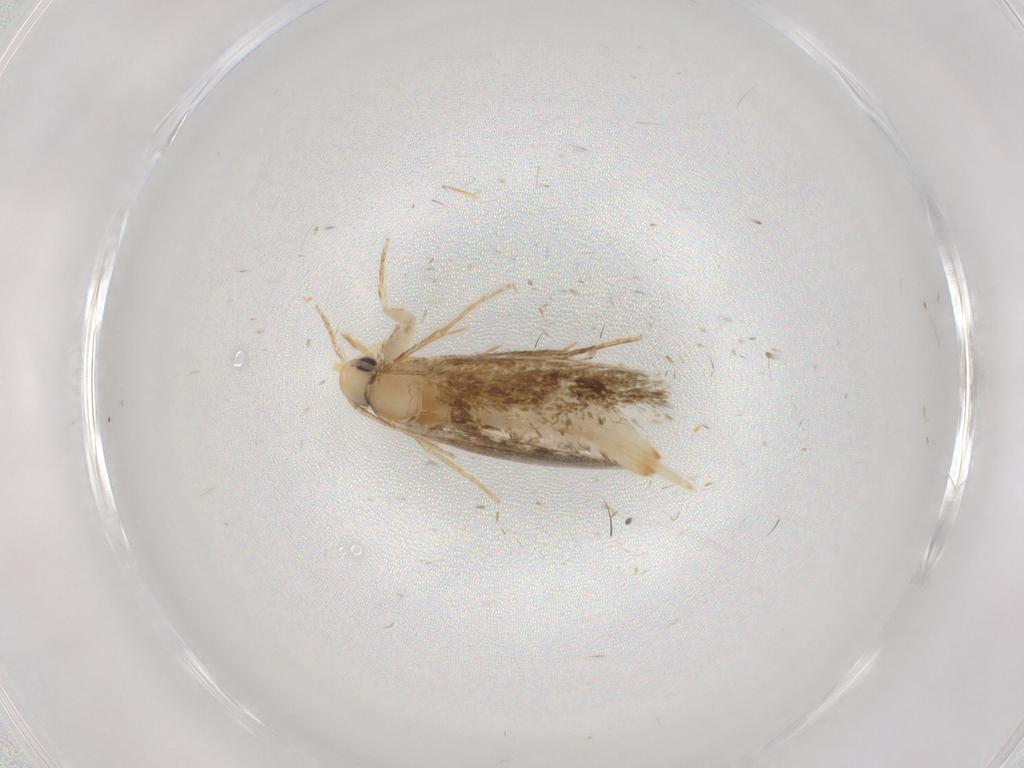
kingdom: Animalia
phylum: Arthropoda
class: Insecta
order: Lepidoptera
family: Tineidae
